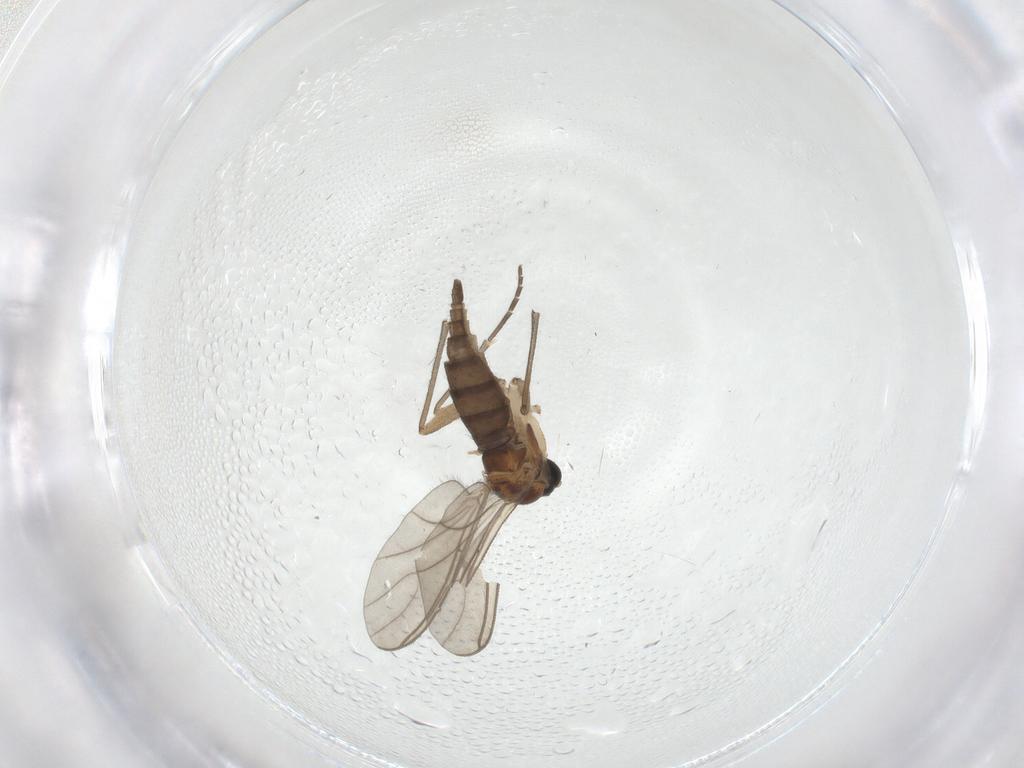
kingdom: Animalia
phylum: Arthropoda
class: Insecta
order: Diptera
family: Sciaridae
